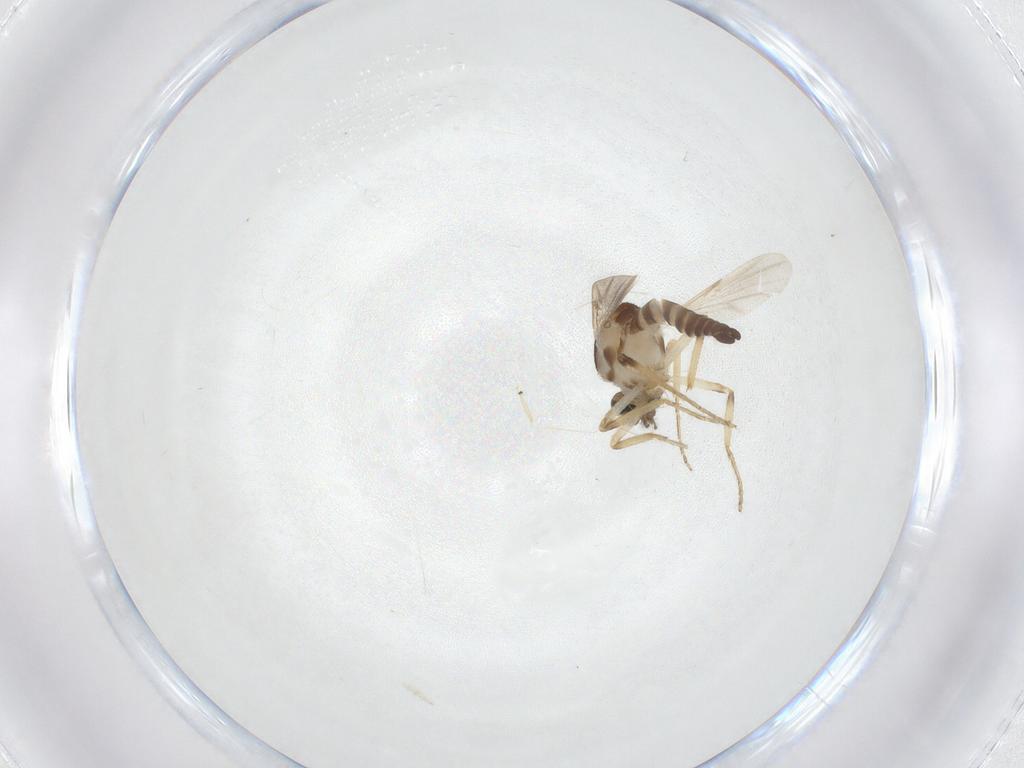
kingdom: Animalia
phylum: Arthropoda
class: Insecta
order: Diptera
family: Ceratopogonidae
